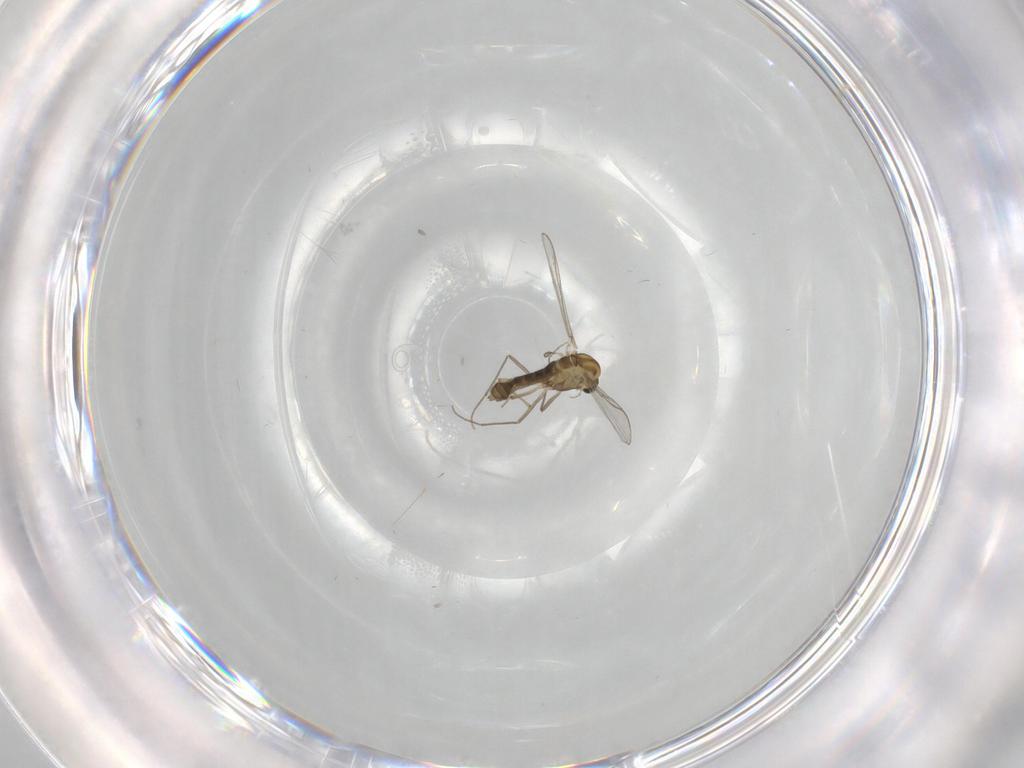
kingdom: Animalia
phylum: Arthropoda
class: Insecta
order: Diptera
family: Chironomidae
